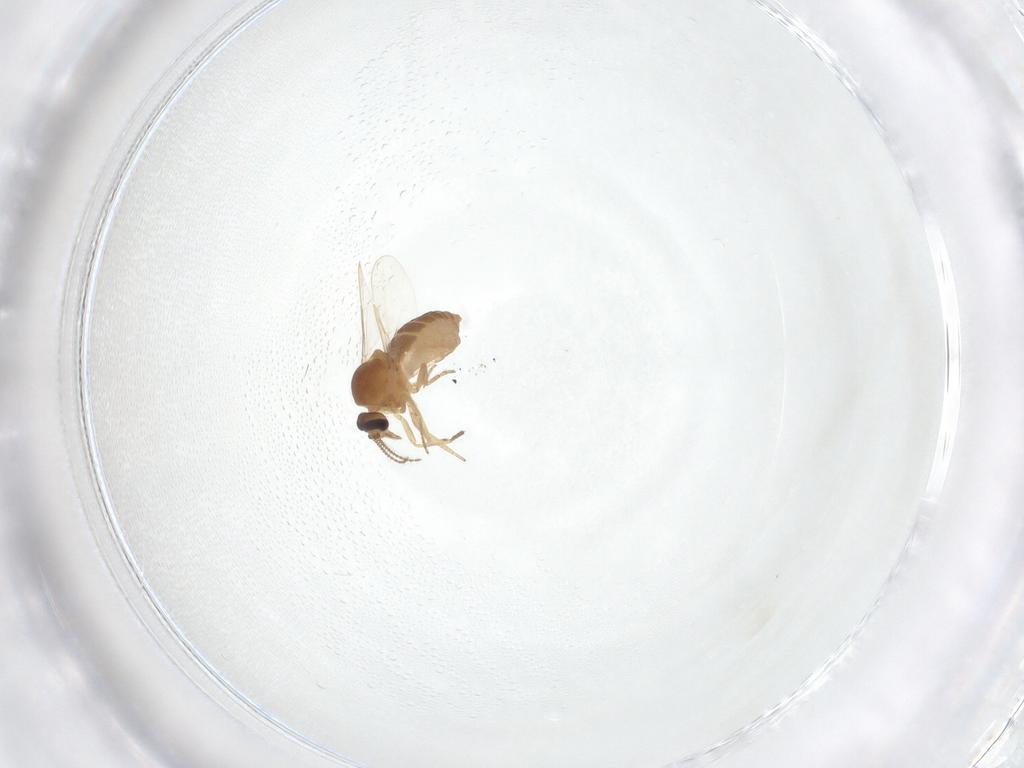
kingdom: Animalia
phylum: Arthropoda
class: Insecta
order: Diptera
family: Ceratopogonidae
